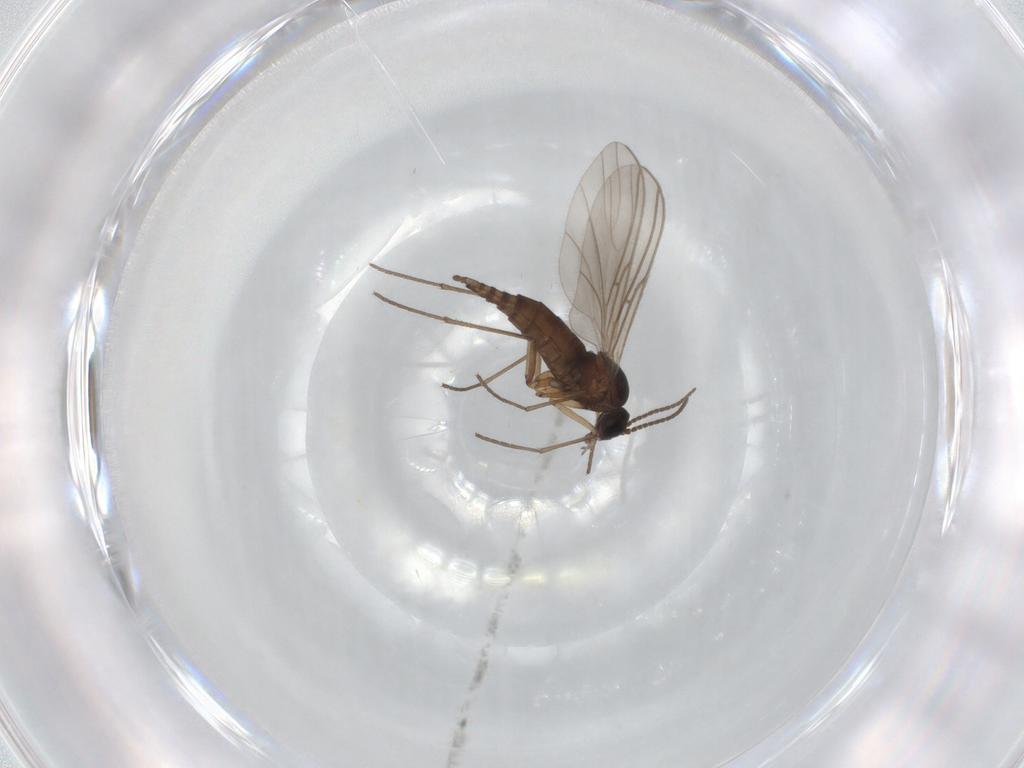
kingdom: Animalia
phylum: Arthropoda
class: Insecta
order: Diptera
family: Sciaridae
